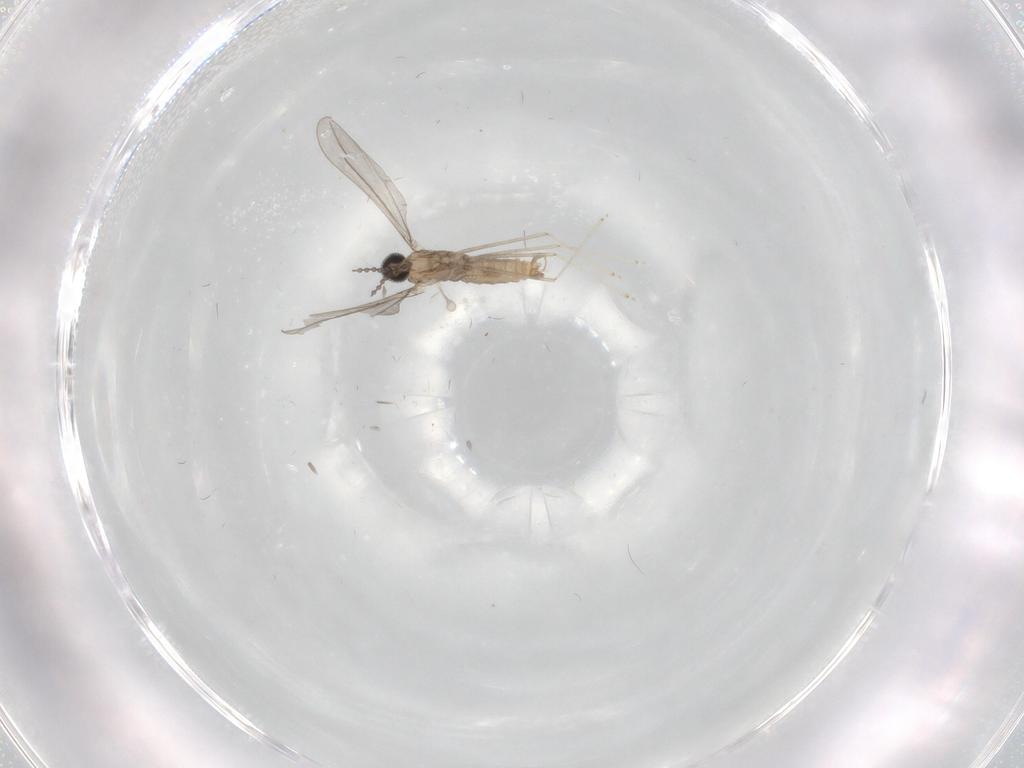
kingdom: Animalia
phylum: Arthropoda
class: Insecta
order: Diptera
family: Cecidomyiidae
